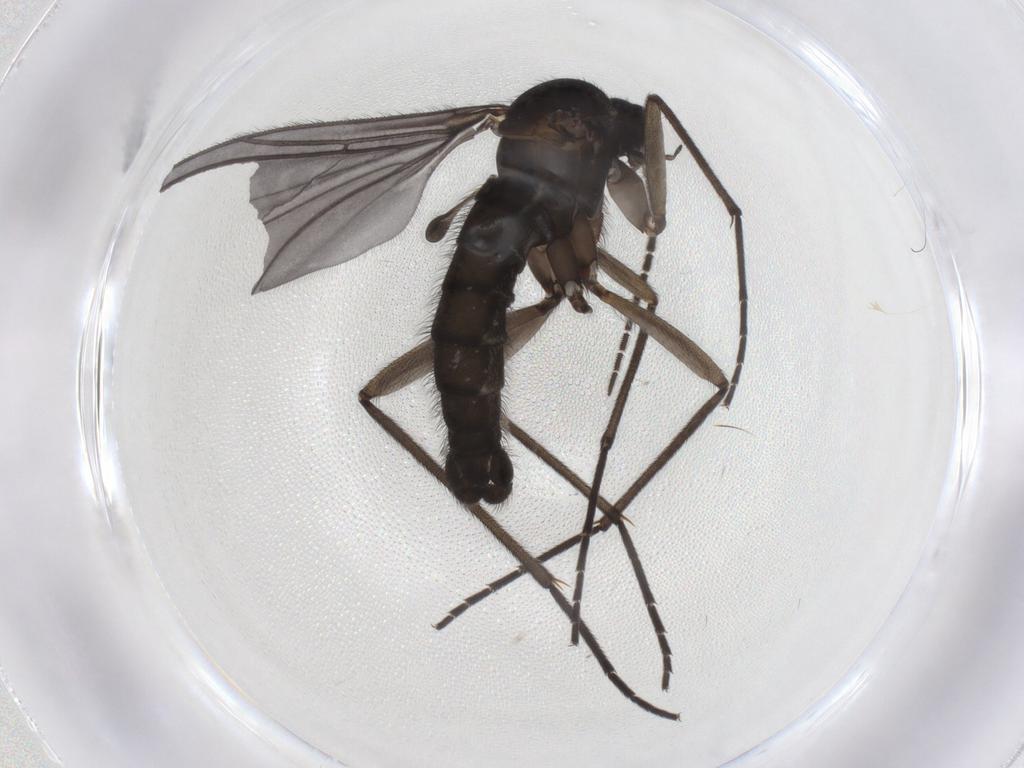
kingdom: Animalia
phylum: Arthropoda
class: Insecta
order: Diptera
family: Sciaridae
